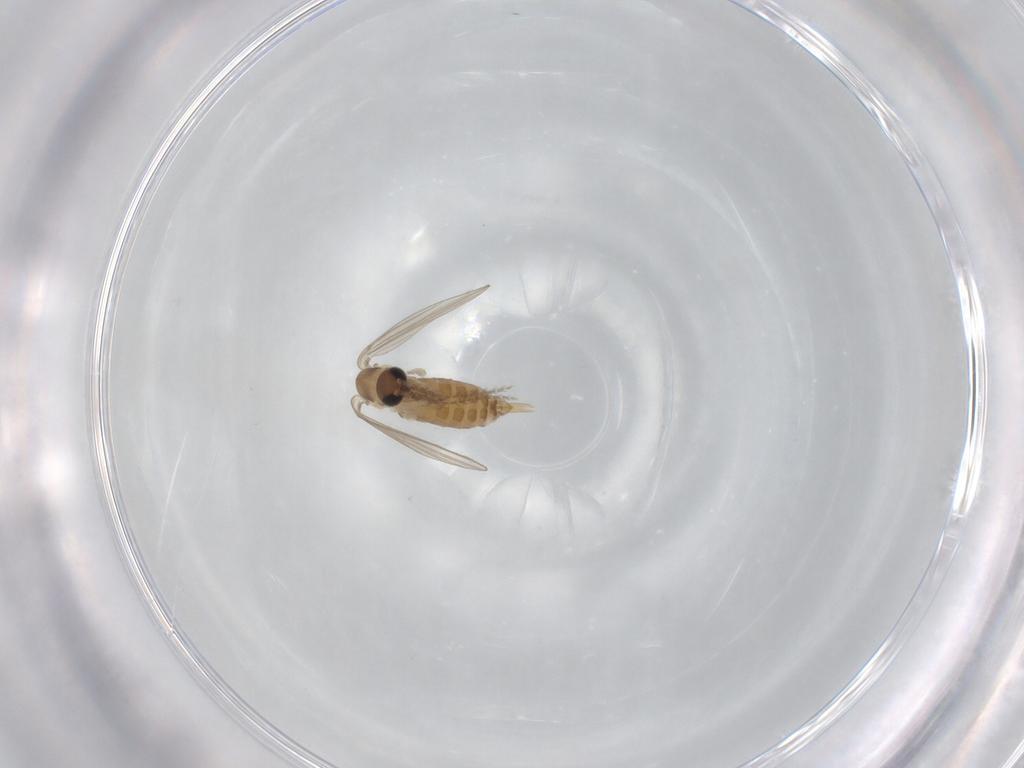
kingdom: Animalia
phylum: Arthropoda
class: Insecta
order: Diptera
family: Psychodidae
